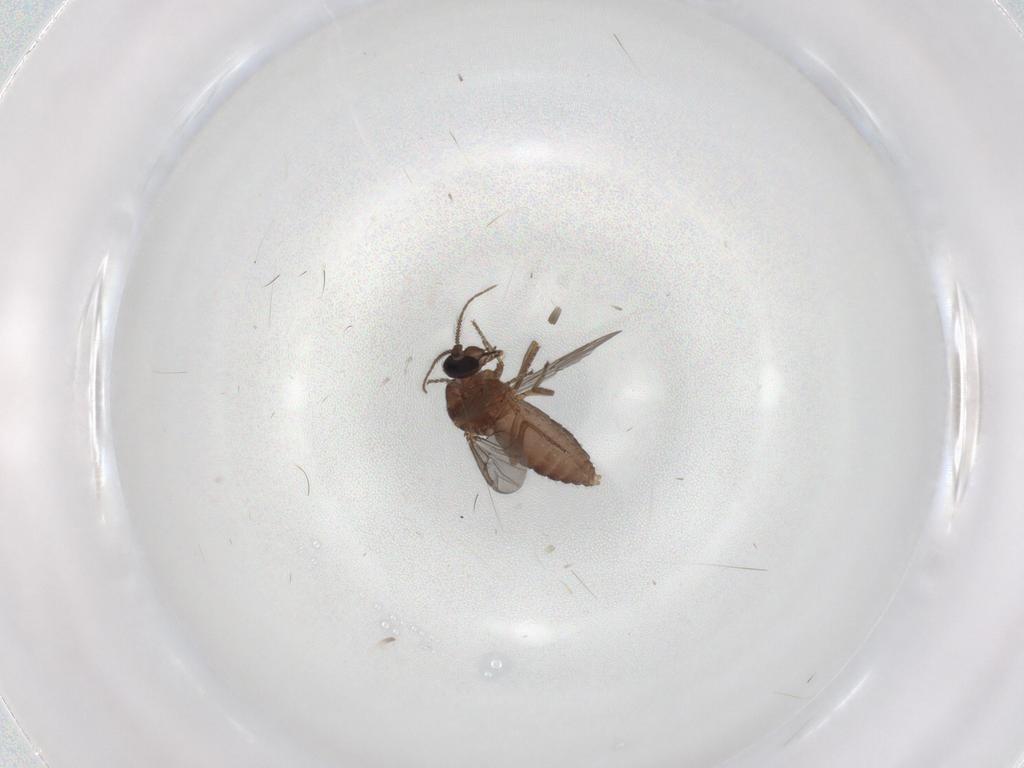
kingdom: Animalia
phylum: Arthropoda
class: Insecta
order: Diptera
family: Ceratopogonidae
